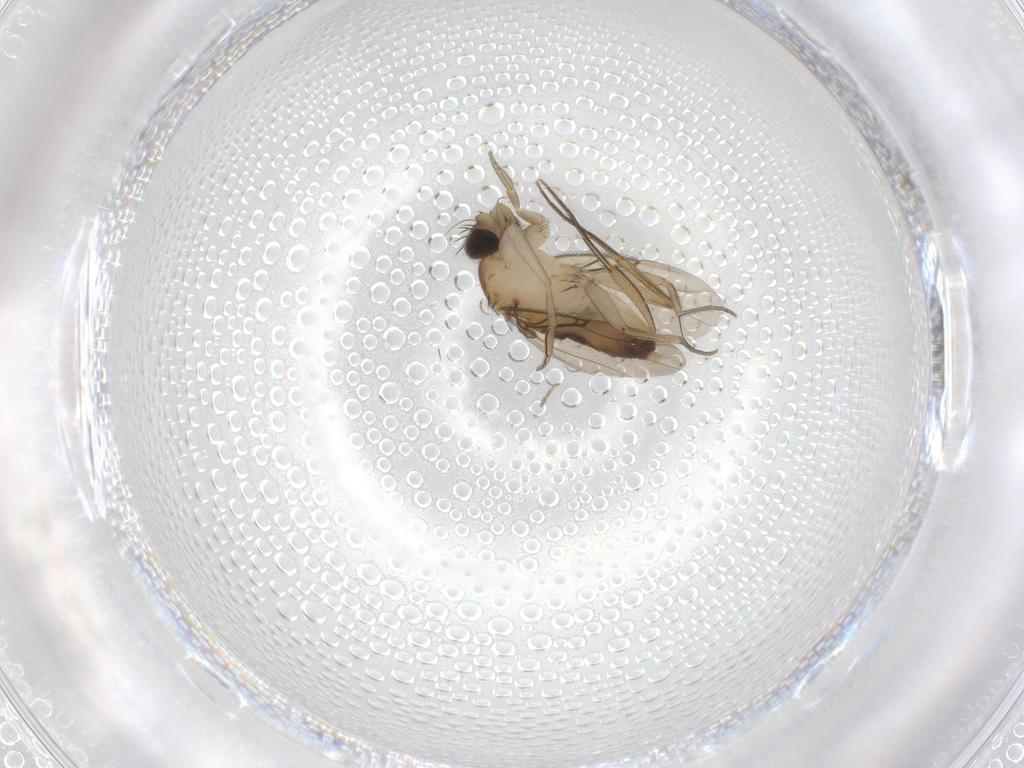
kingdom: Animalia
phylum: Arthropoda
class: Insecta
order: Diptera
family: Phoridae
